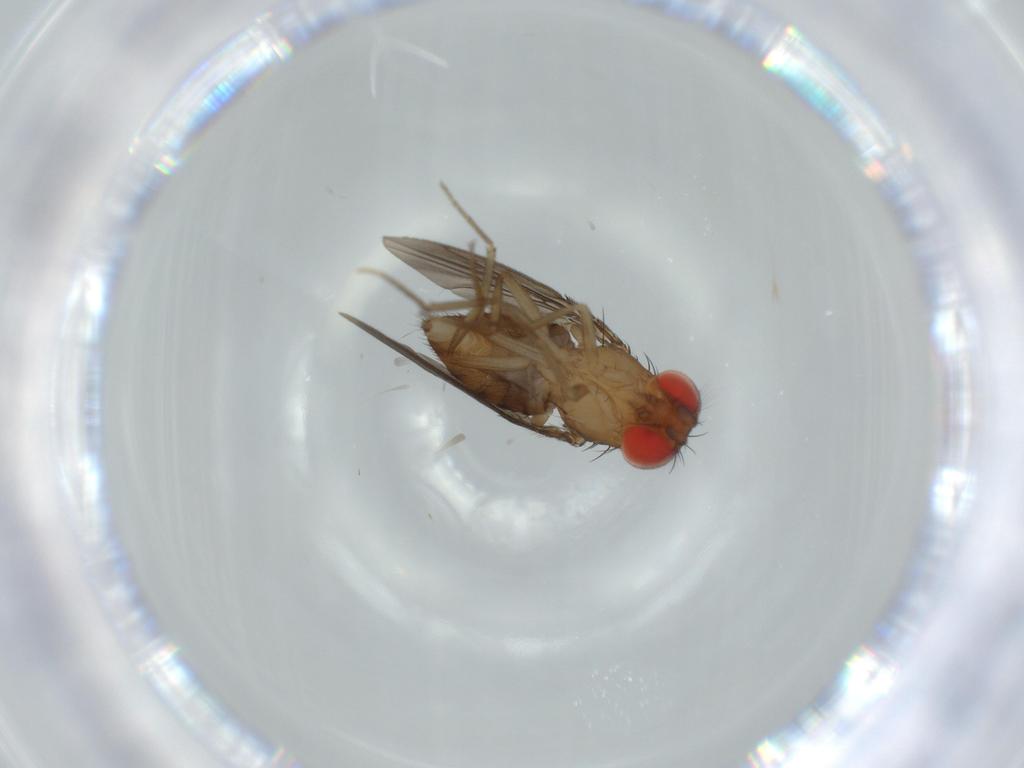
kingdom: Animalia
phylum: Arthropoda
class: Insecta
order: Diptera
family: Drosophilidae
